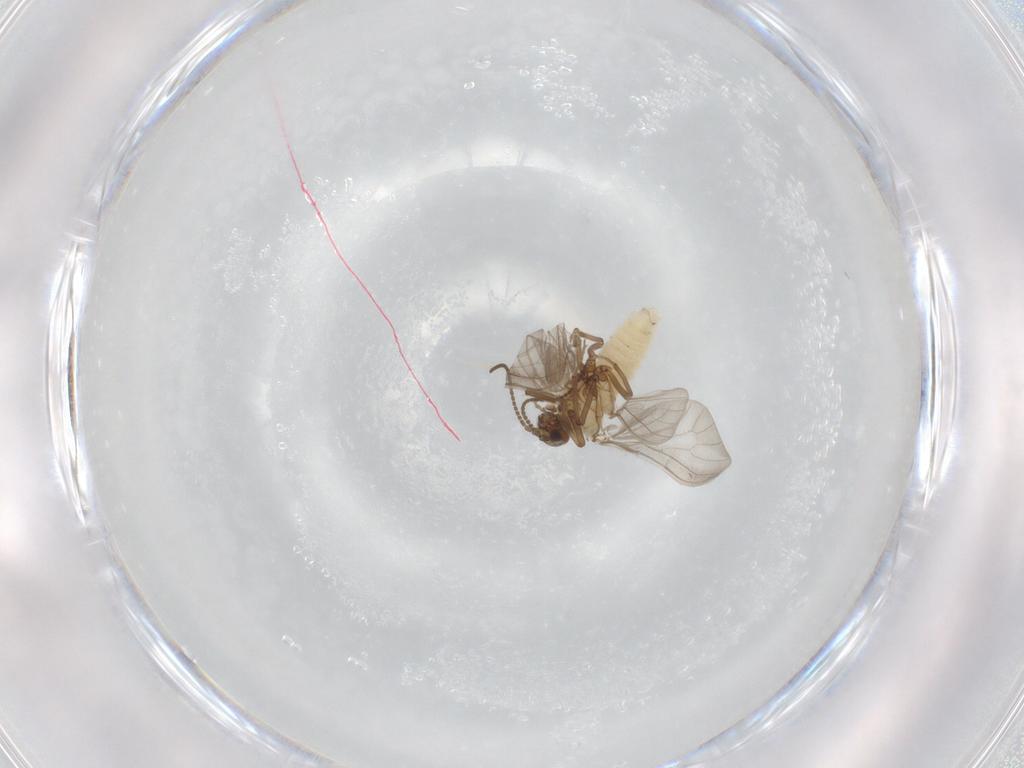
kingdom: Animalia
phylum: Arthropoda
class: Insecta
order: Neuroptera
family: Coniopterygidae
